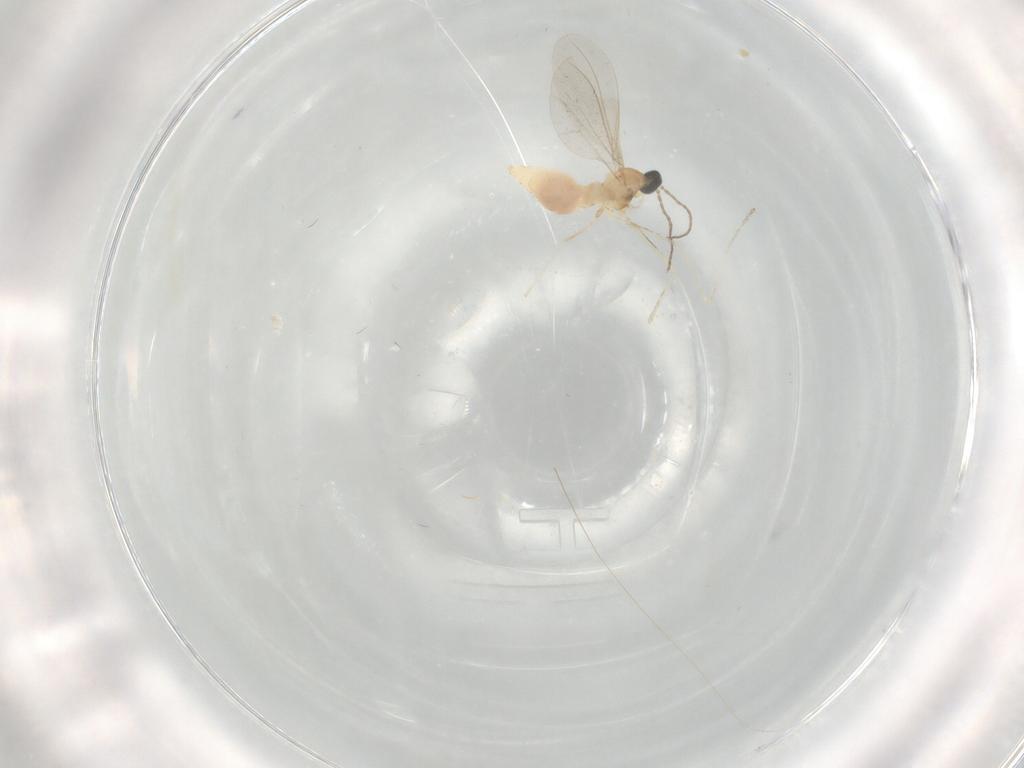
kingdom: Animalia
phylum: Arthropoda
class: Insecta
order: Diptera
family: Cecidomyiidae
